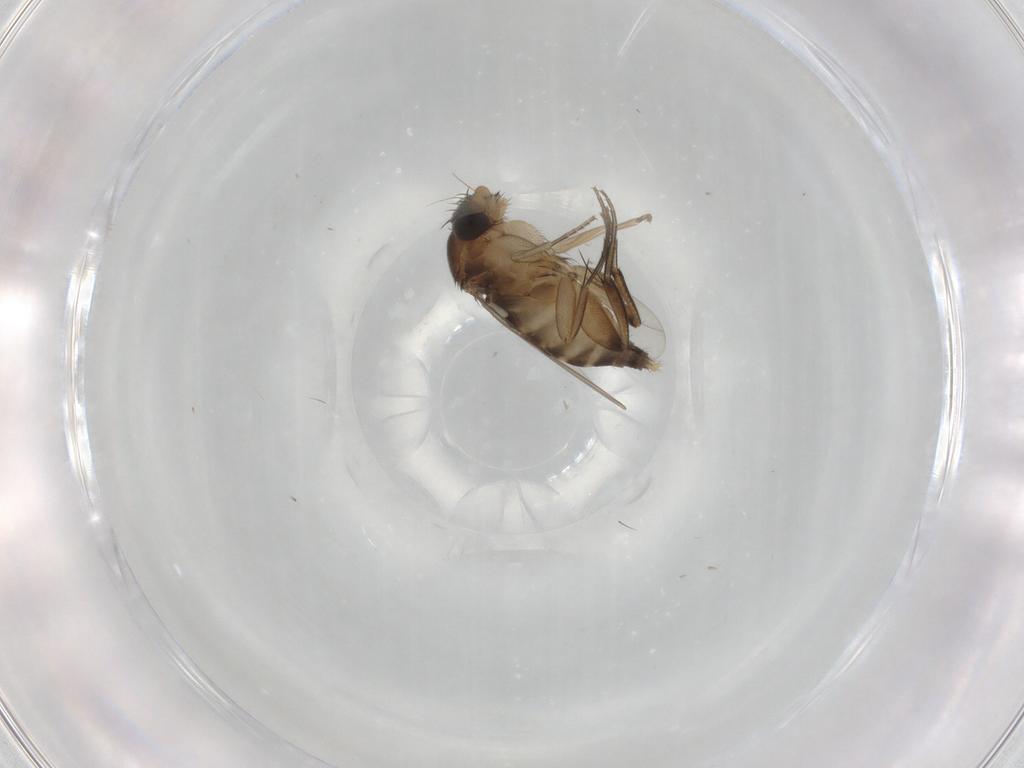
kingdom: Animalia
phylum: Arthropoda
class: Insecta
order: Diptera
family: Phoridae
